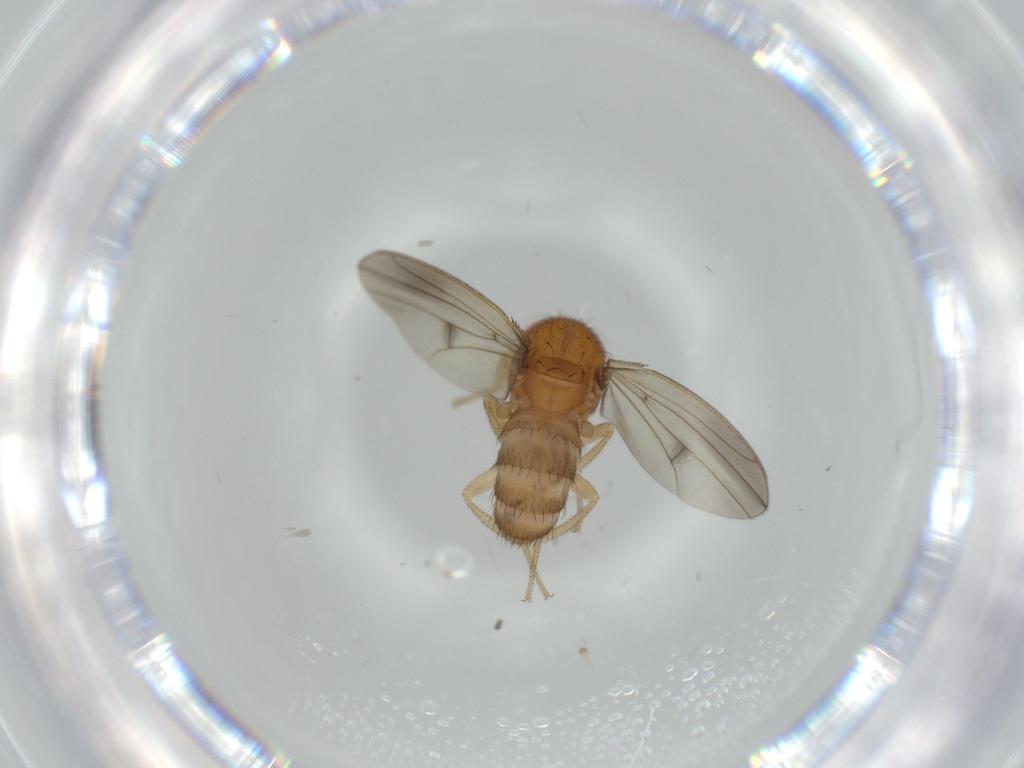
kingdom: Animalia
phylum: Arthropoda
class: Insecta
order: Diptera
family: Drosophilidae
